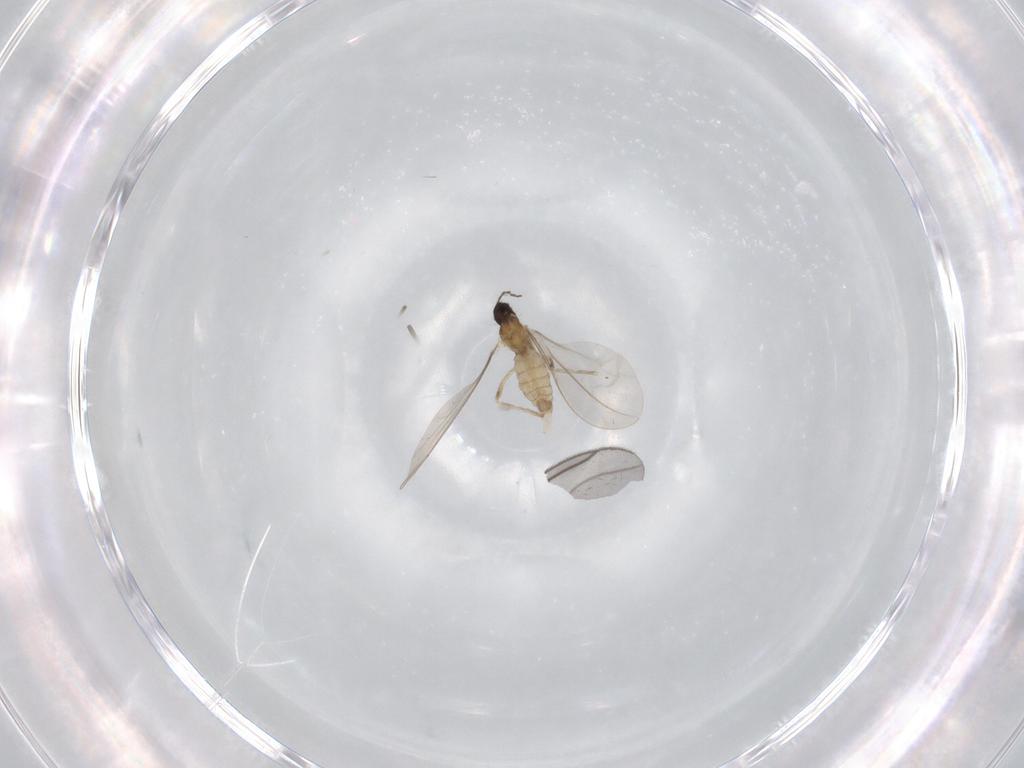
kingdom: Animalia
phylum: Arthropoda
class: Insecta
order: Diptera
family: Cecidomyiidae
